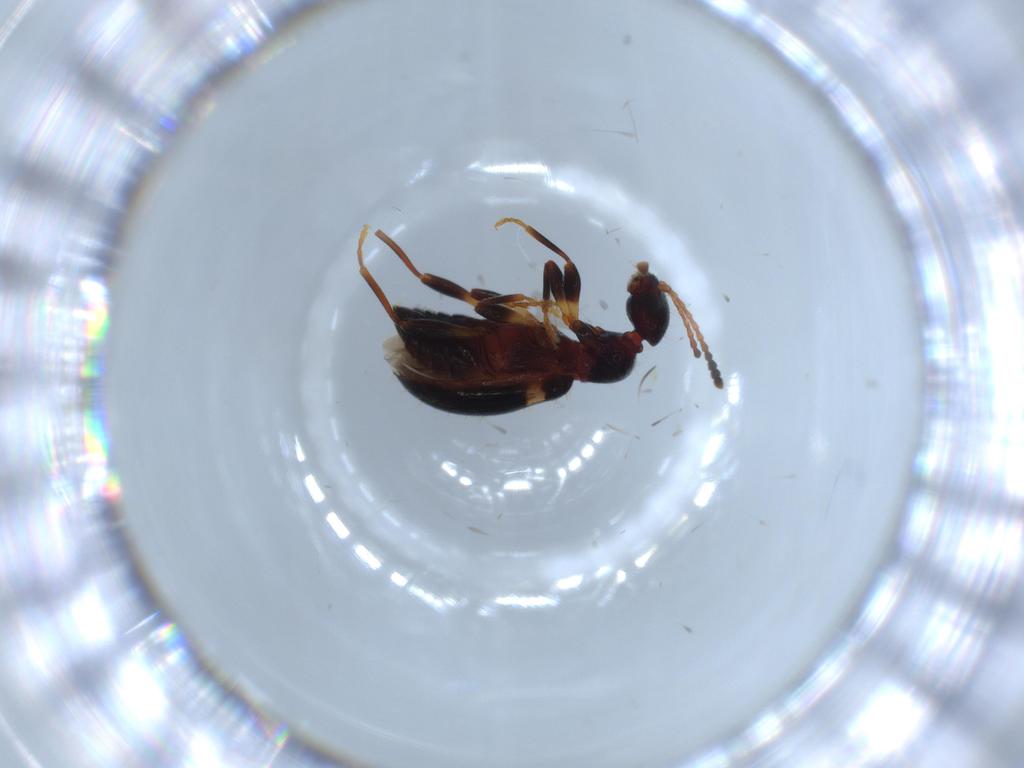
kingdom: Animalia
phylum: Arthropoda
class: Insecta
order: Coleoptera
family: Anthicidae
